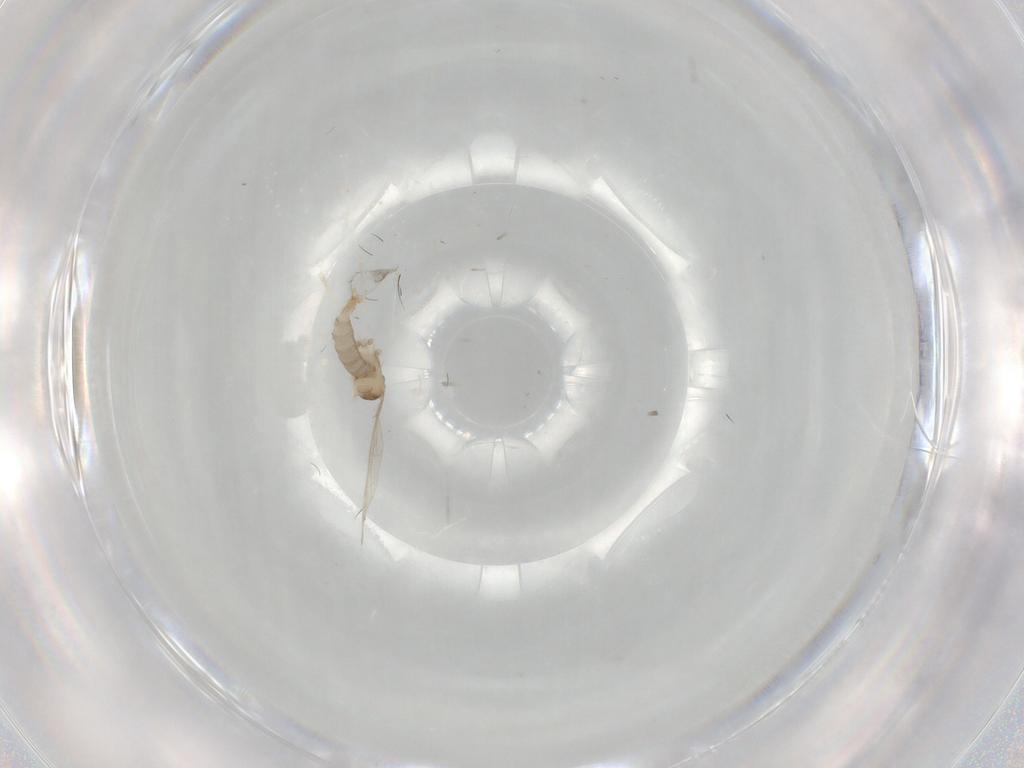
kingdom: Animalia
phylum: Arthropoda
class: Insecta
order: Diptera
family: Cecidomyiidae
